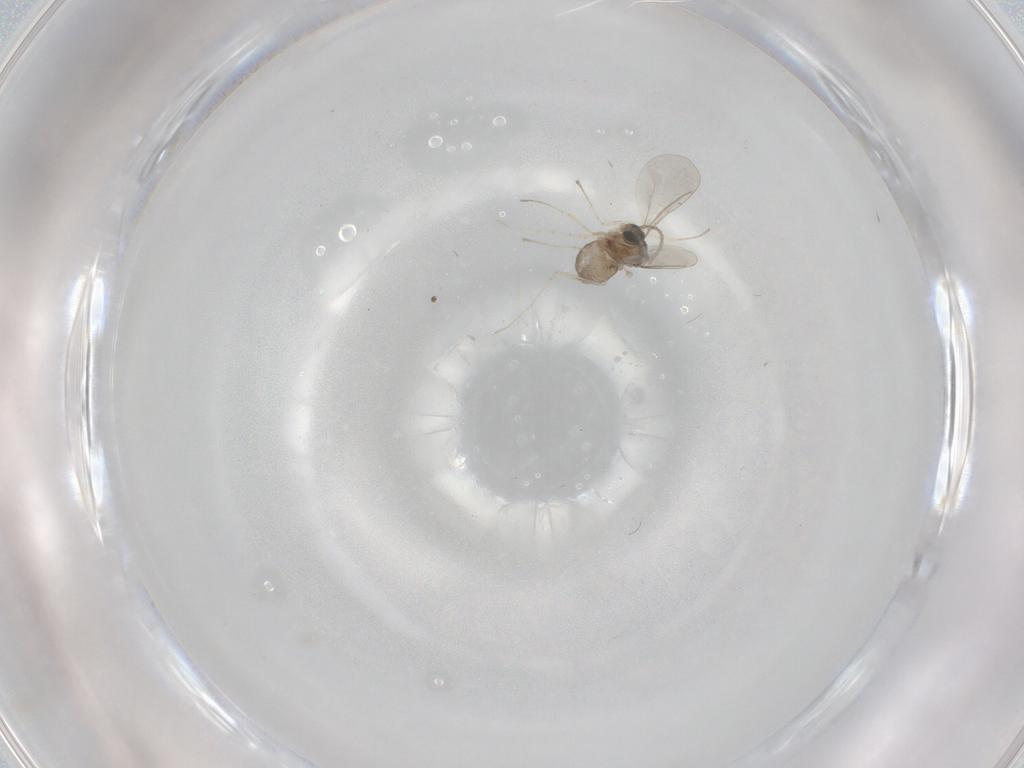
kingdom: Animalia
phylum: Arthropoda
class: Insecta
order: Diptera
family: Phoridae
